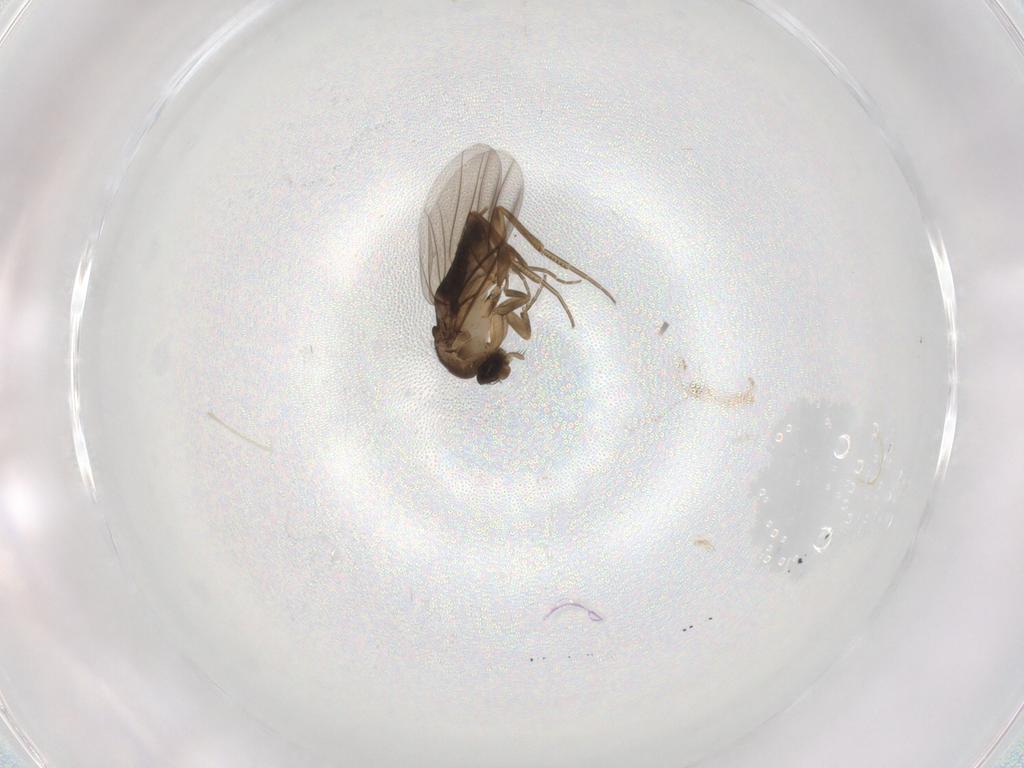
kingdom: Animalia
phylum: Arthropoda
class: Insecta
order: Diptera
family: Phoridae
